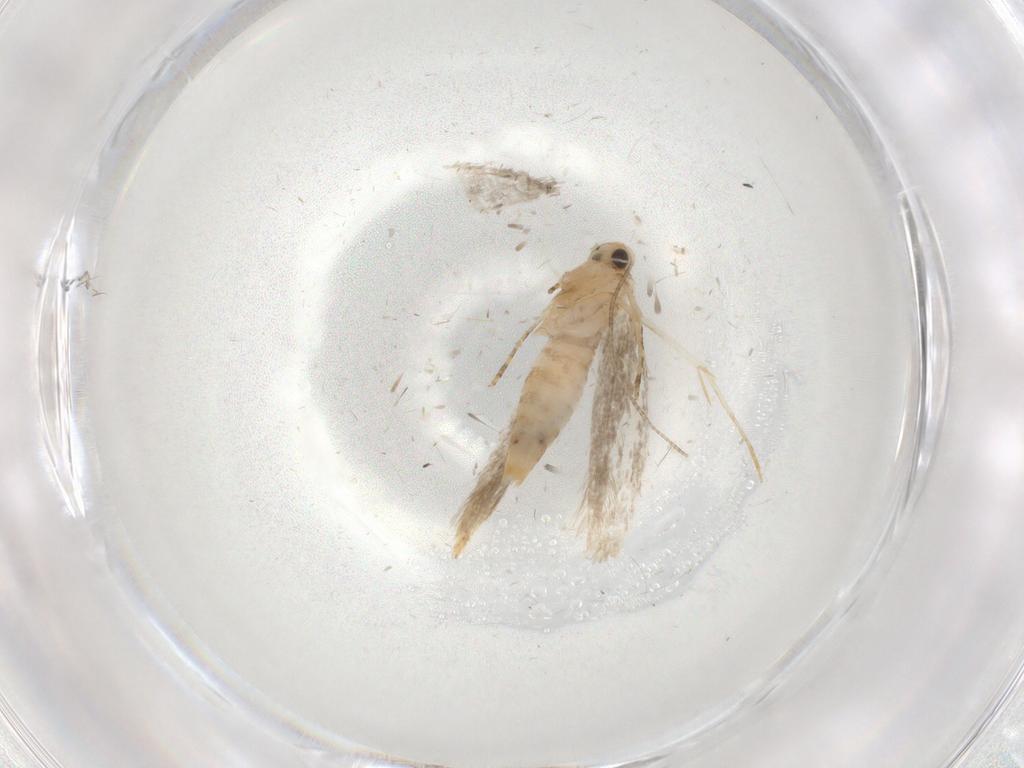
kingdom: Animalia
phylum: Arthropoda
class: Insecta
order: Lepidoptera
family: Tineidae
